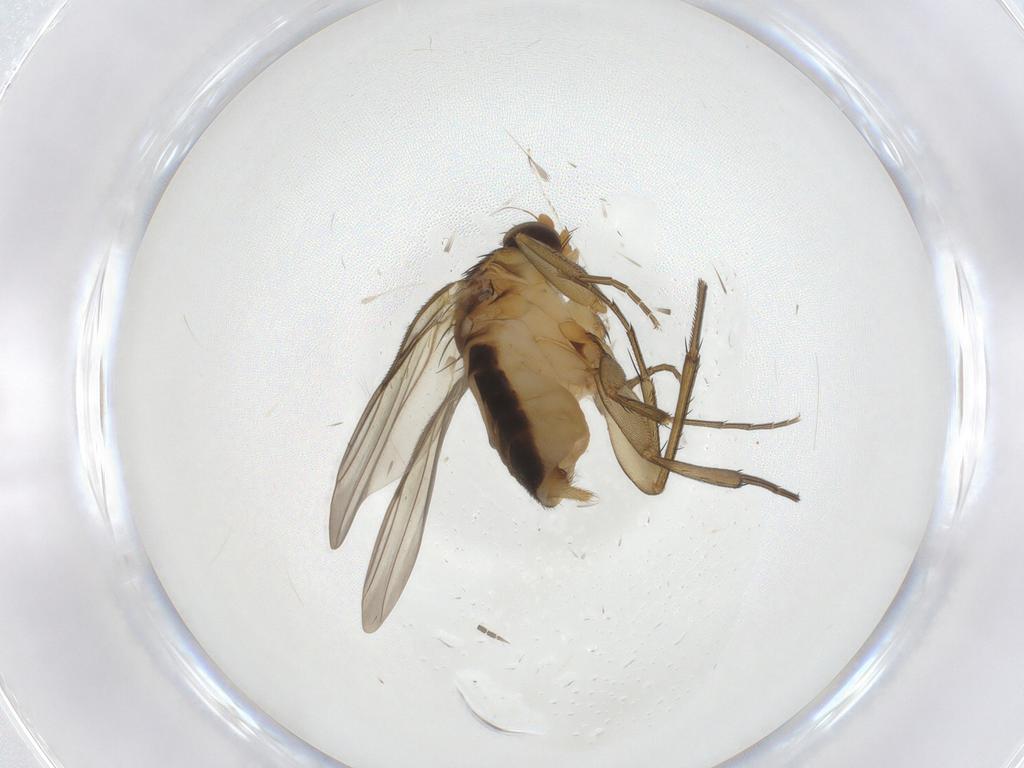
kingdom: Animalia
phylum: Arthropoda
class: Insecta
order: Diptera
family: Phoridae
